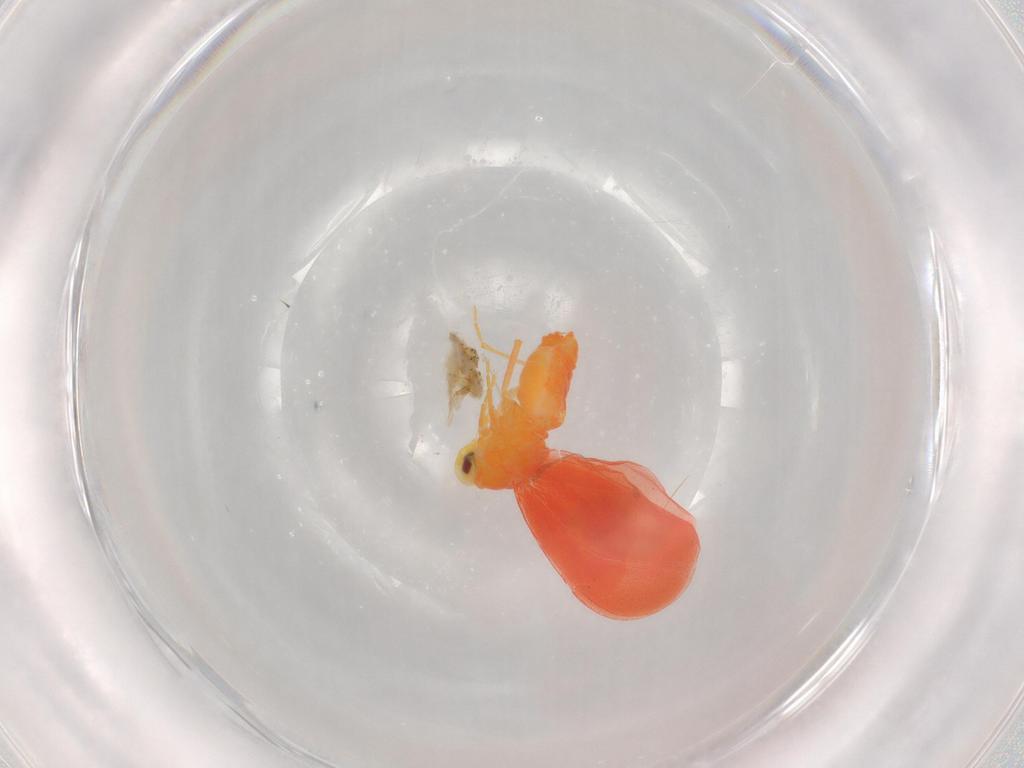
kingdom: Animalia
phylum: Arthropoda
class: Insecta
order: Hemiptera
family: Aleyrodidae
